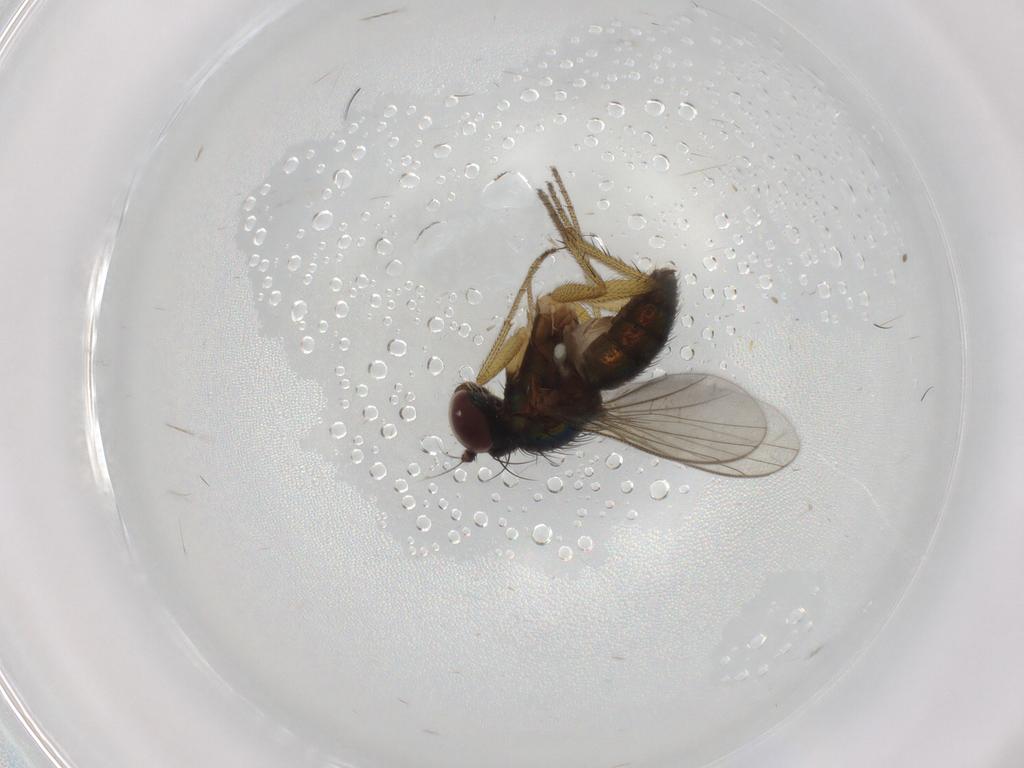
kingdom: Animalia
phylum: Arthropoda
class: Insecta
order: Diptera
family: Dolichopodidae
